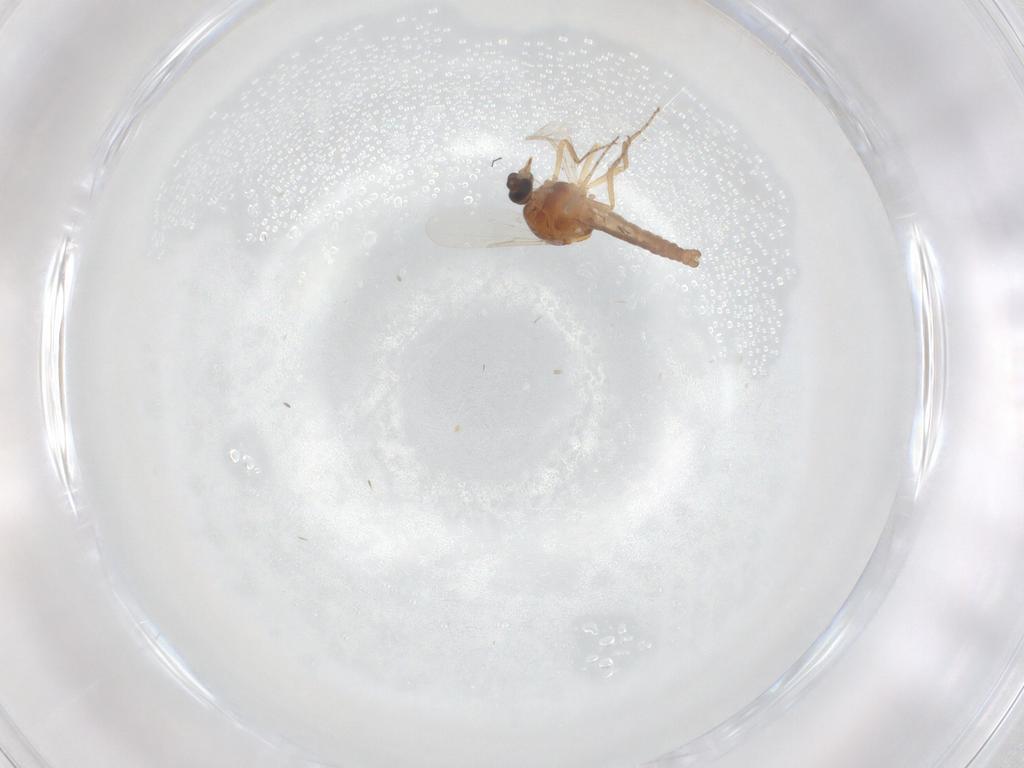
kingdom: Animalia
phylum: Arthropoda
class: Insecta
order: Diptera
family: Ceratopogonidae
